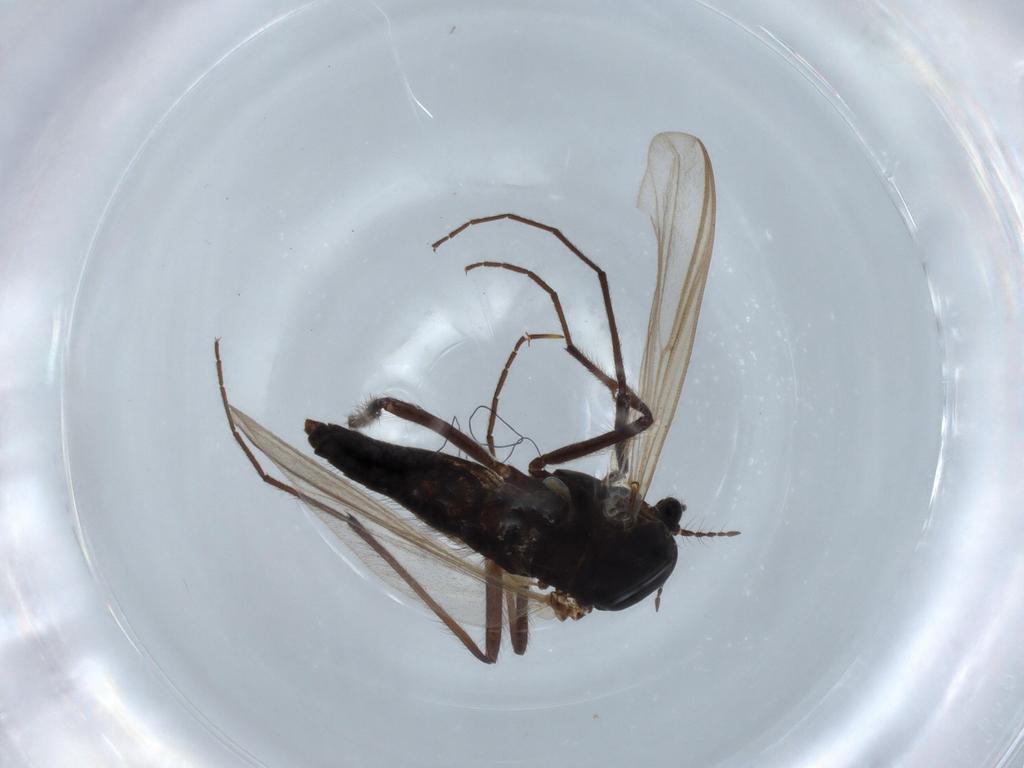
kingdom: Animalia
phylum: Arthropoda
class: Insecta
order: Diptera
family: Sphaeroceridae
